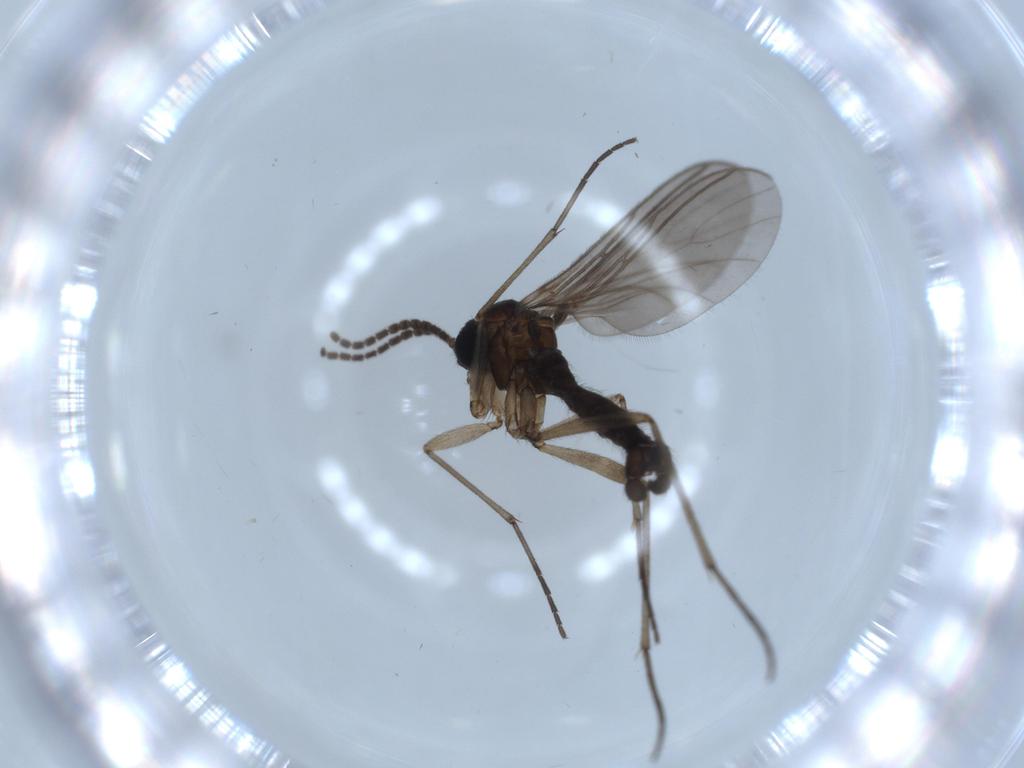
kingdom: Animalia
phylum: Arthropoda
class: Insecta
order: Diptera
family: Sciaridae
